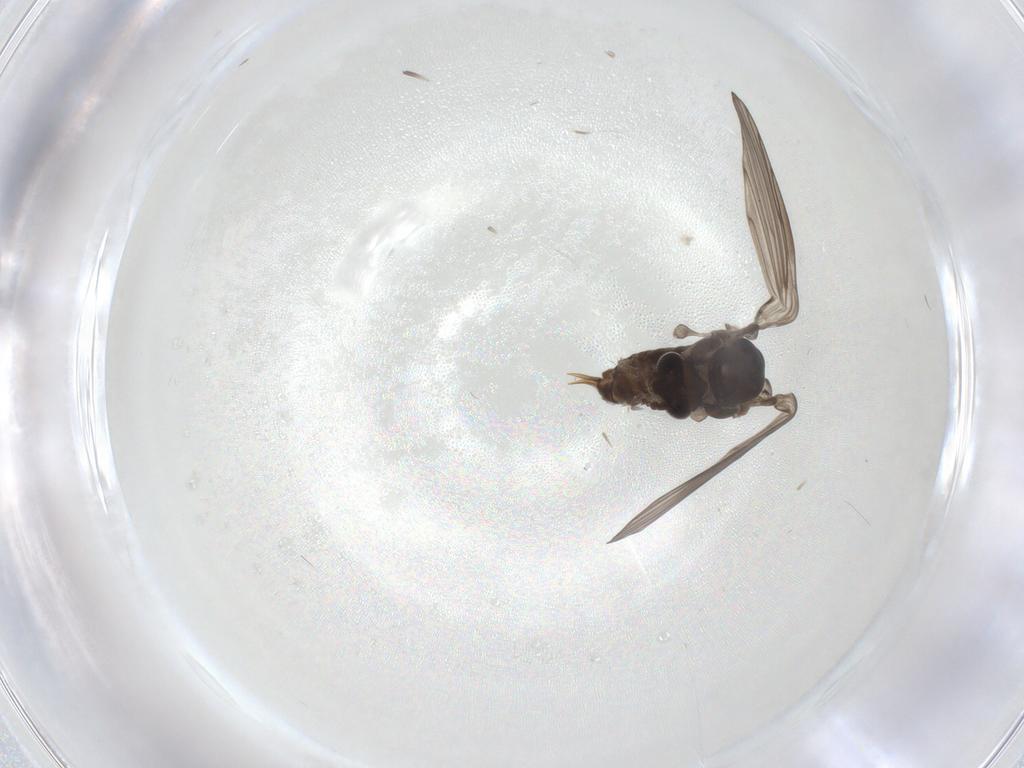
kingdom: Animalia
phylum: Arthropoda
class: Insecta
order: Diptera
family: Psychodidae
